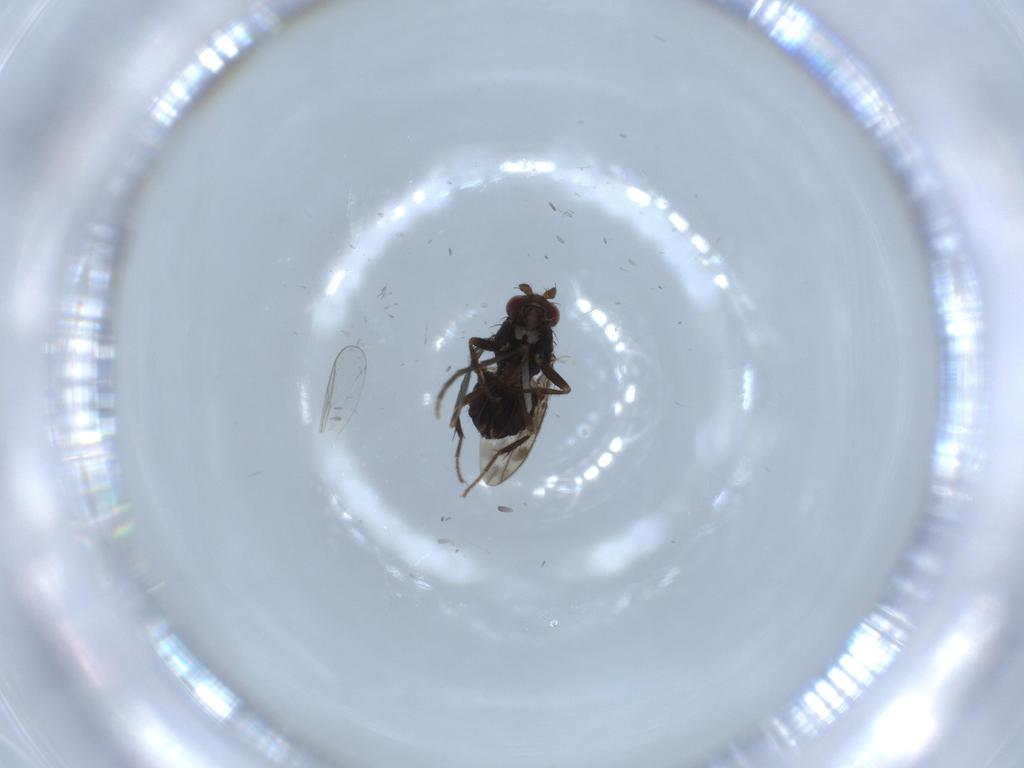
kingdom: Animalia
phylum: Arthropoda
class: Insecta
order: Diptera
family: Sphaeroceridae
